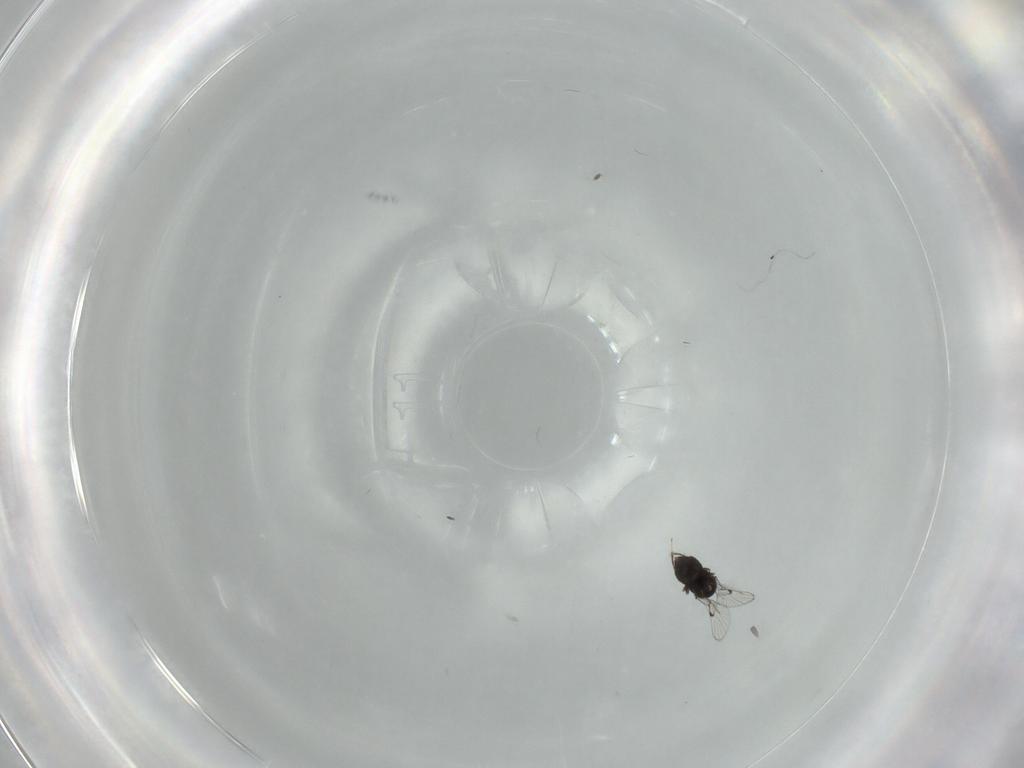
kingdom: Animalia
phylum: Arthropoda
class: Insecta
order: Hymenoptera
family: Trichogrammatidae
